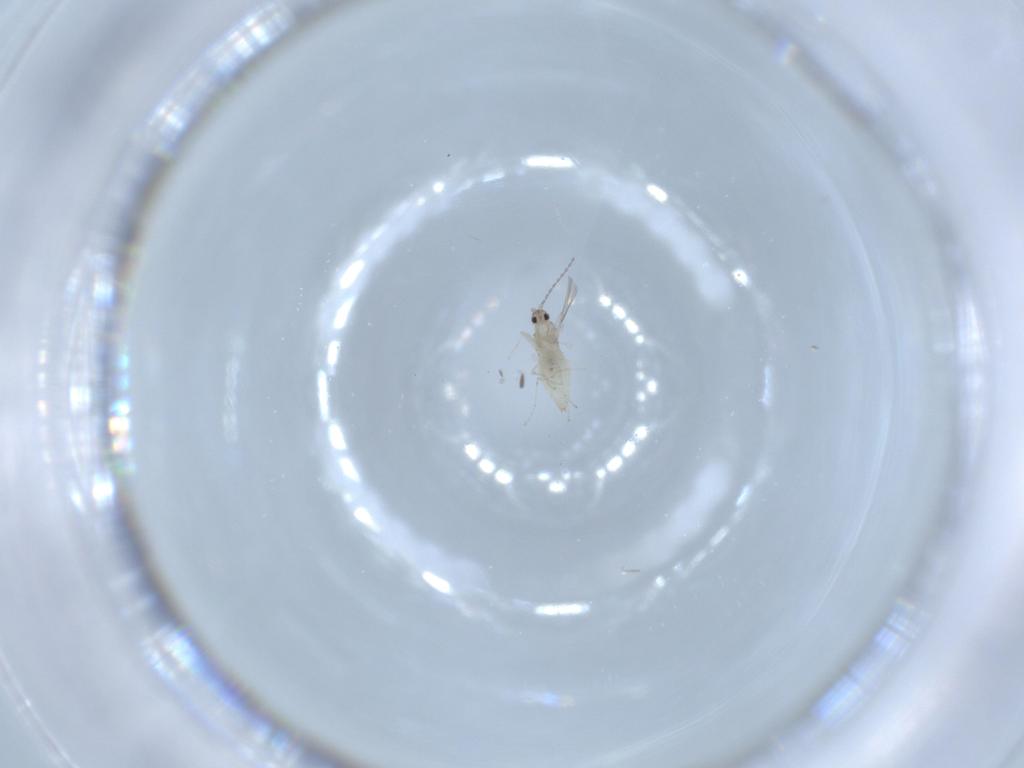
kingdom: Animalia
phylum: Arthropoda
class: Insecta
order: Diptera
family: Cecidomyiidae
